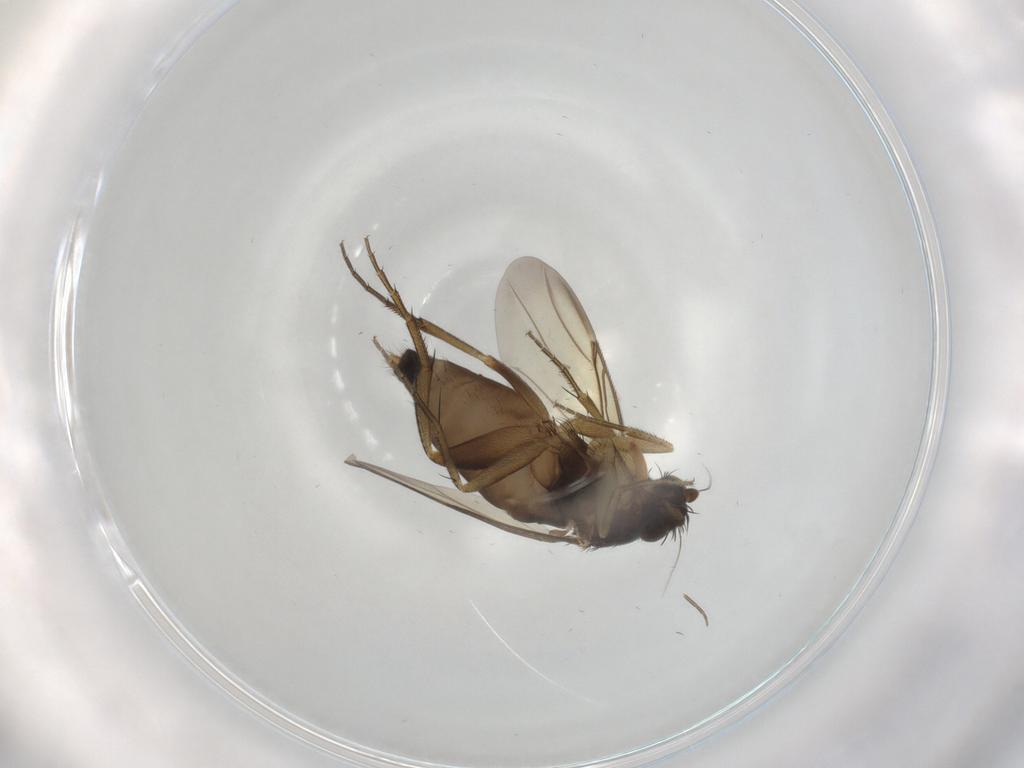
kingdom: Animalia
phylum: Arthropoda
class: Insecta
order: Diptera
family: Phoridae
